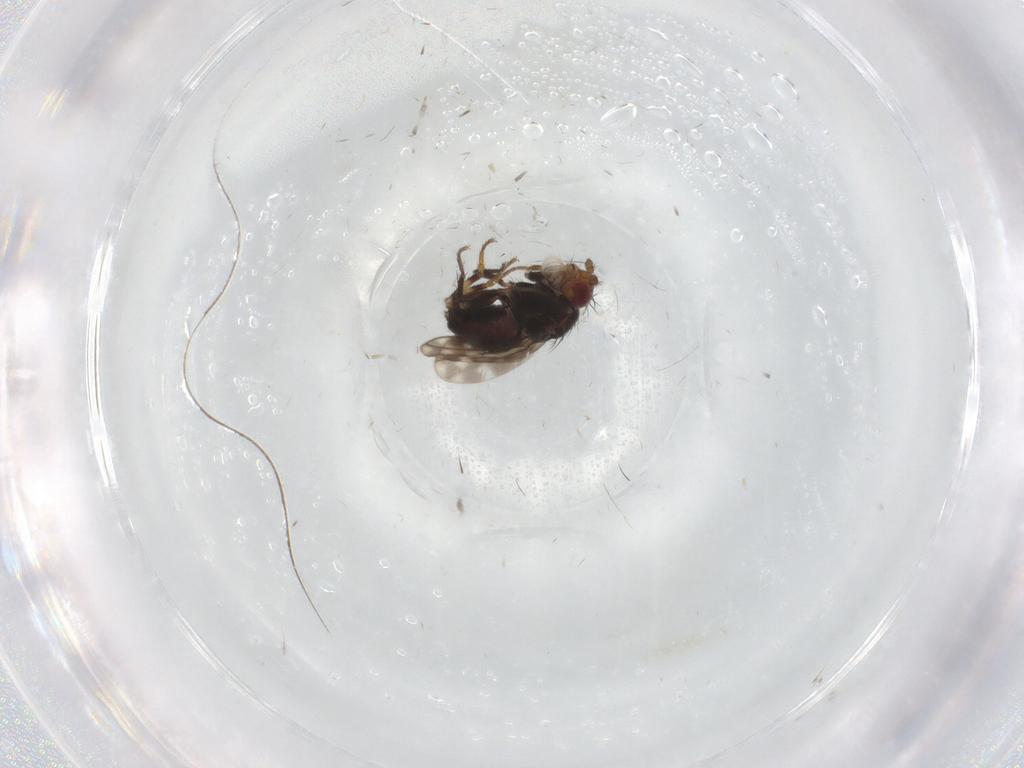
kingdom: Animalia
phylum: Arthropoda
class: Insecta
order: Diptera
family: Sphaeroceridae
